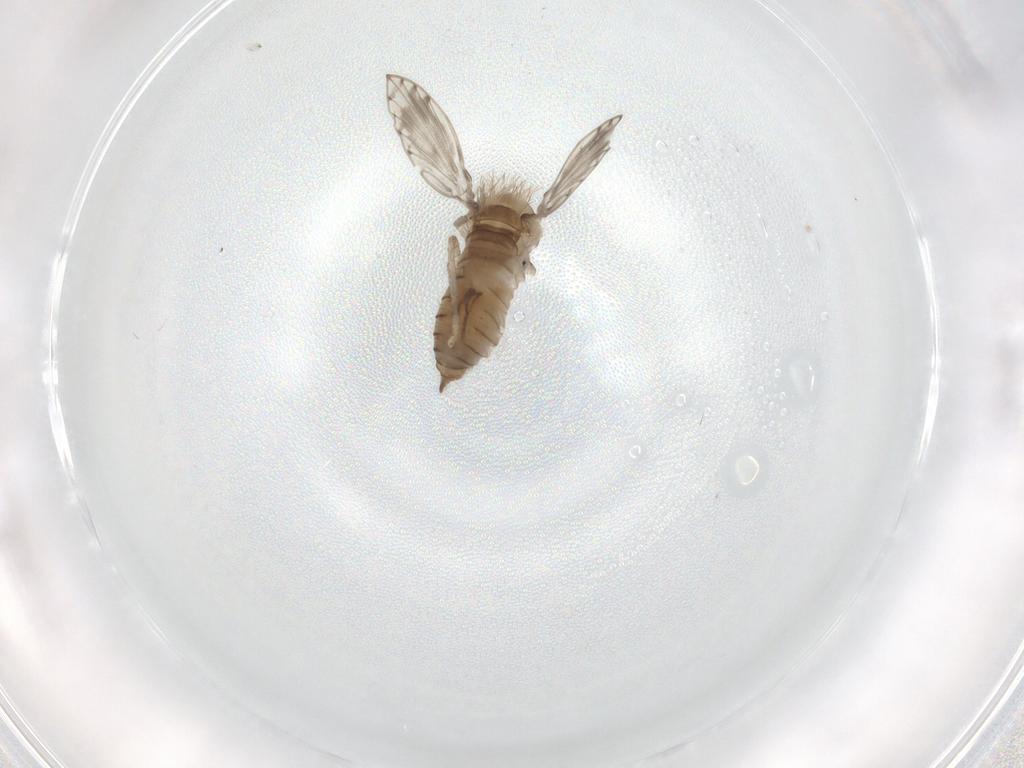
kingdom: Animalia
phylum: Arthropoda
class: Insecta
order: Diptera
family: Psychodidae
